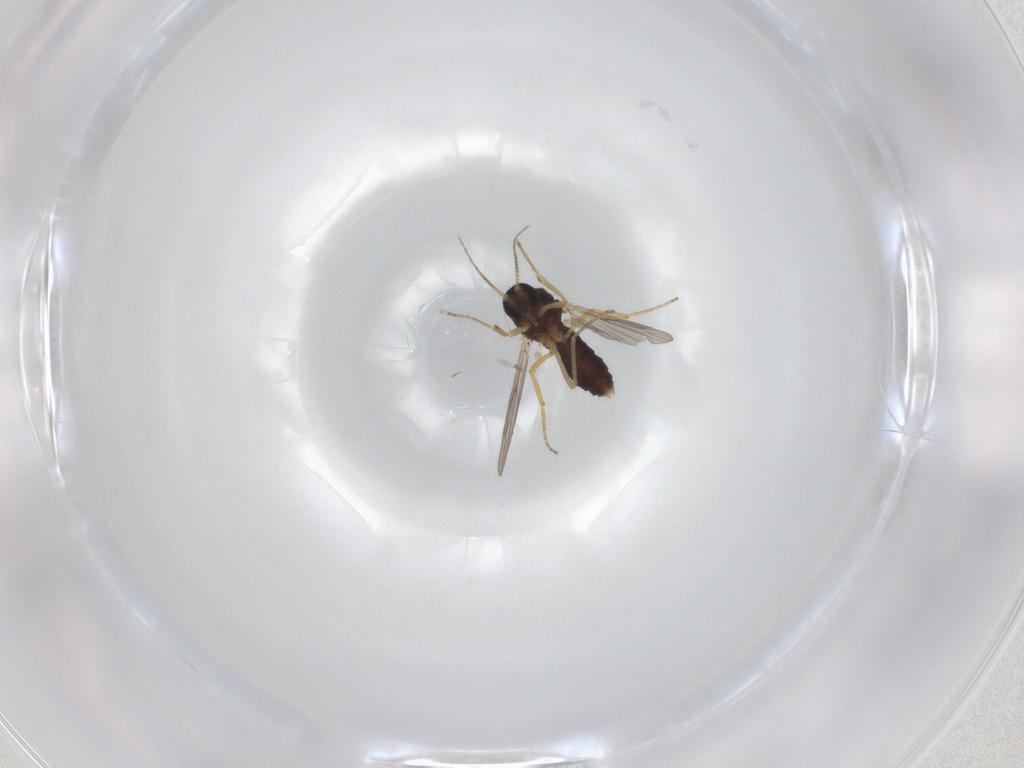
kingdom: Animalia
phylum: Arthropoda
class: Insecta
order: Diptera
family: Ceratopogonidae
